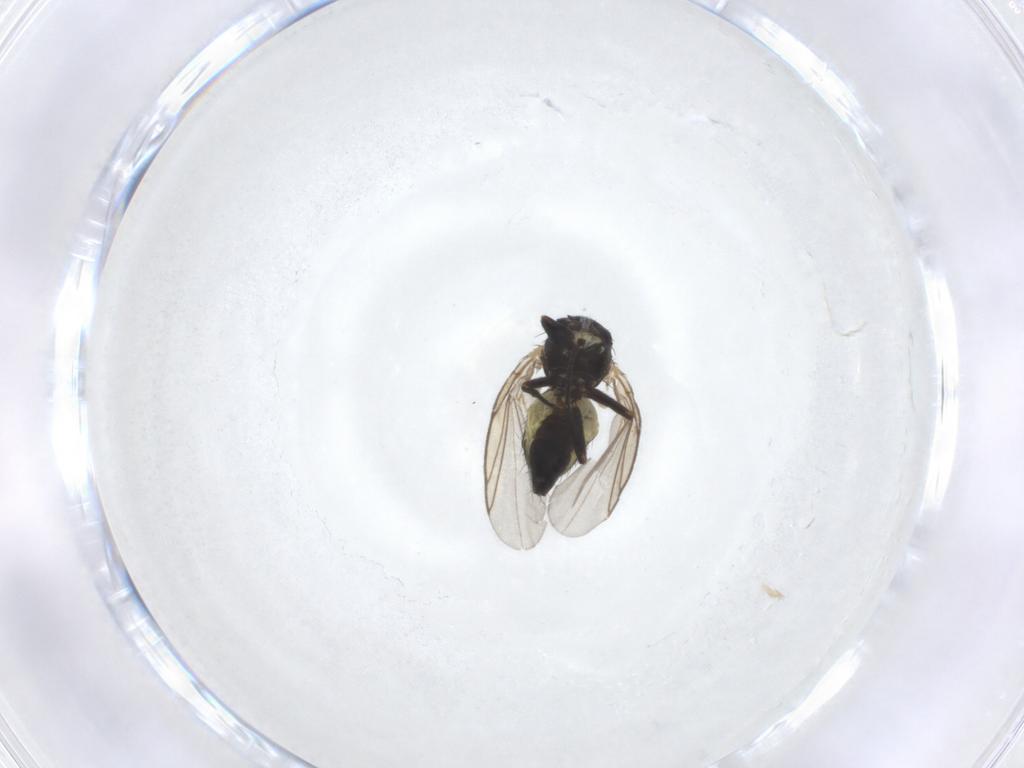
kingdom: Animalia
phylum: Arthropoda
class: Insecta
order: Diptera
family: Agromyzidae
